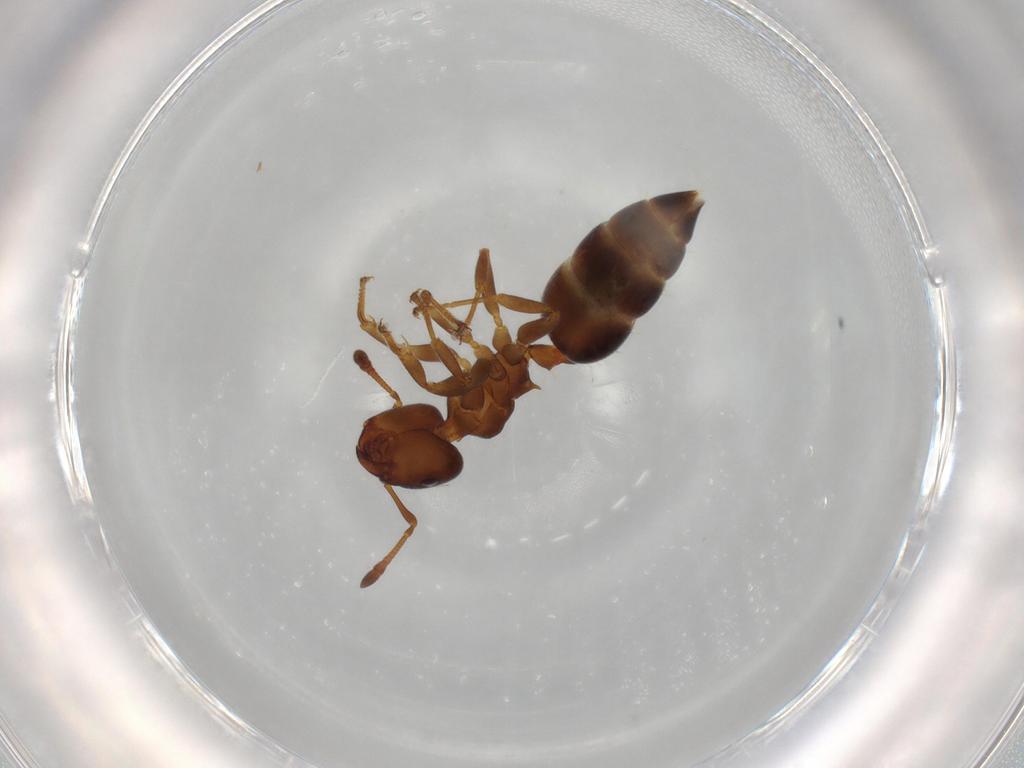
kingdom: Animalia
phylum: Arthropoda
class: Insecta
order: Hymenoptera
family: Formicidae
